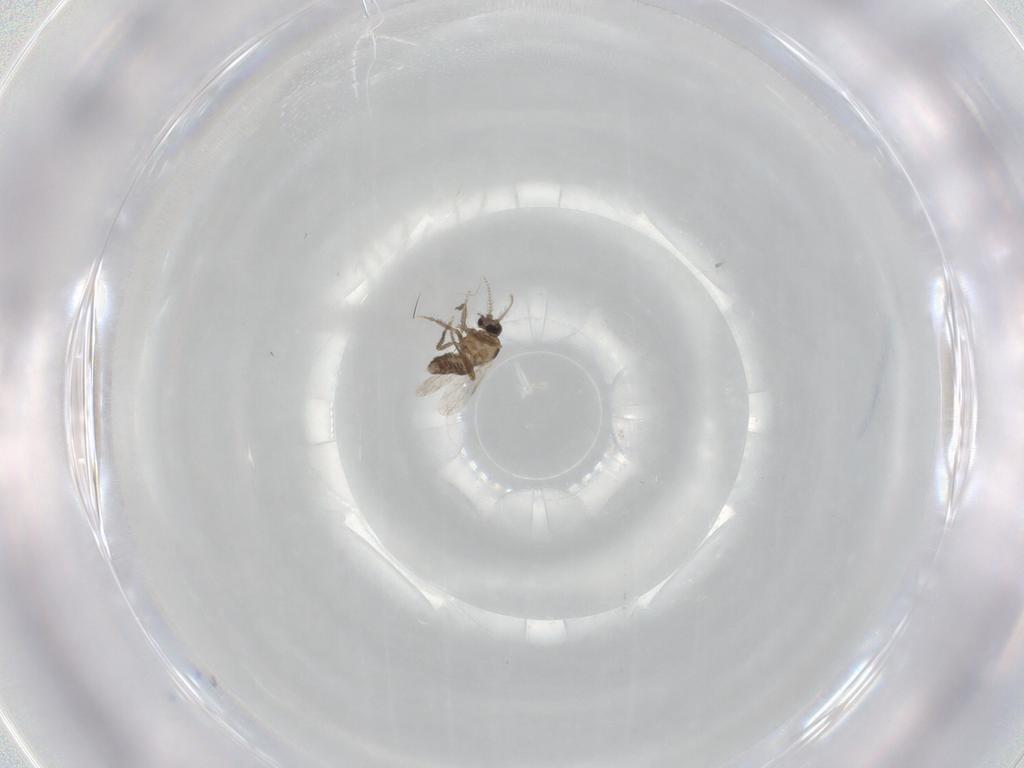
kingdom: Animalia
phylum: Arthropoda
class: Insecta
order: Diptera
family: Ceratopogonidae
